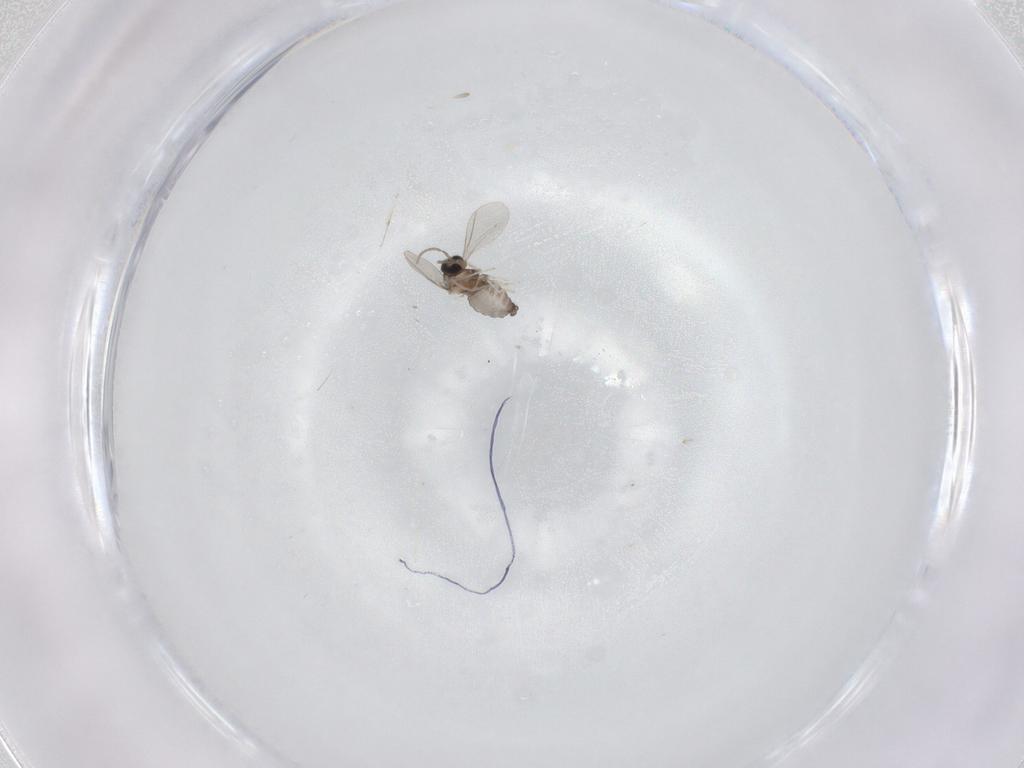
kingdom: Animalia
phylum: Arthropoda
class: Insecta
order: Diptera
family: Cecidomyiidae
